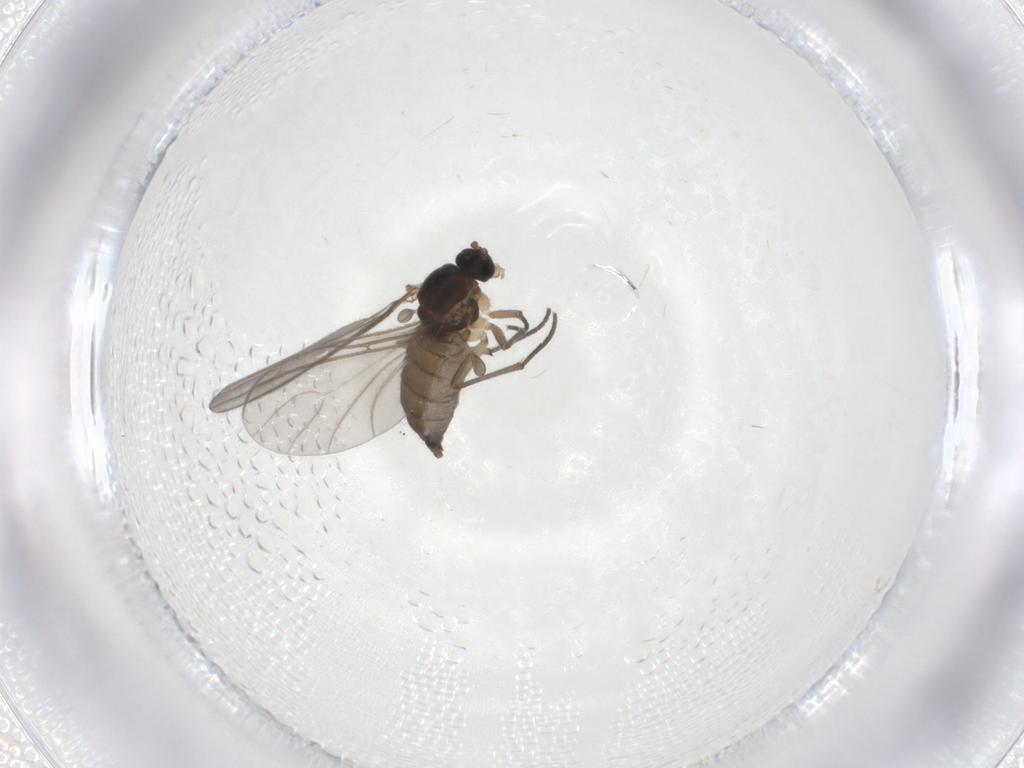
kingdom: Animalia
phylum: Arthropoda
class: Insecta
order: Diptera
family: Sciaridae
